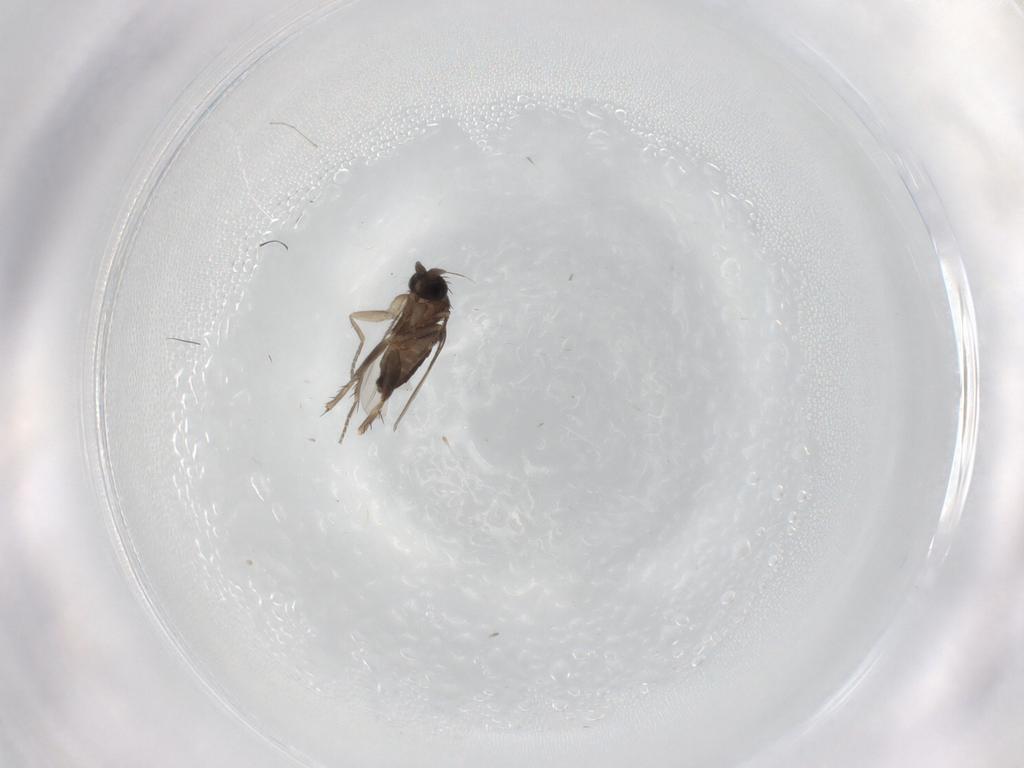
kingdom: Animalia
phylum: Arthropoda
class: Insecta
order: Diptera
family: Phoridae
